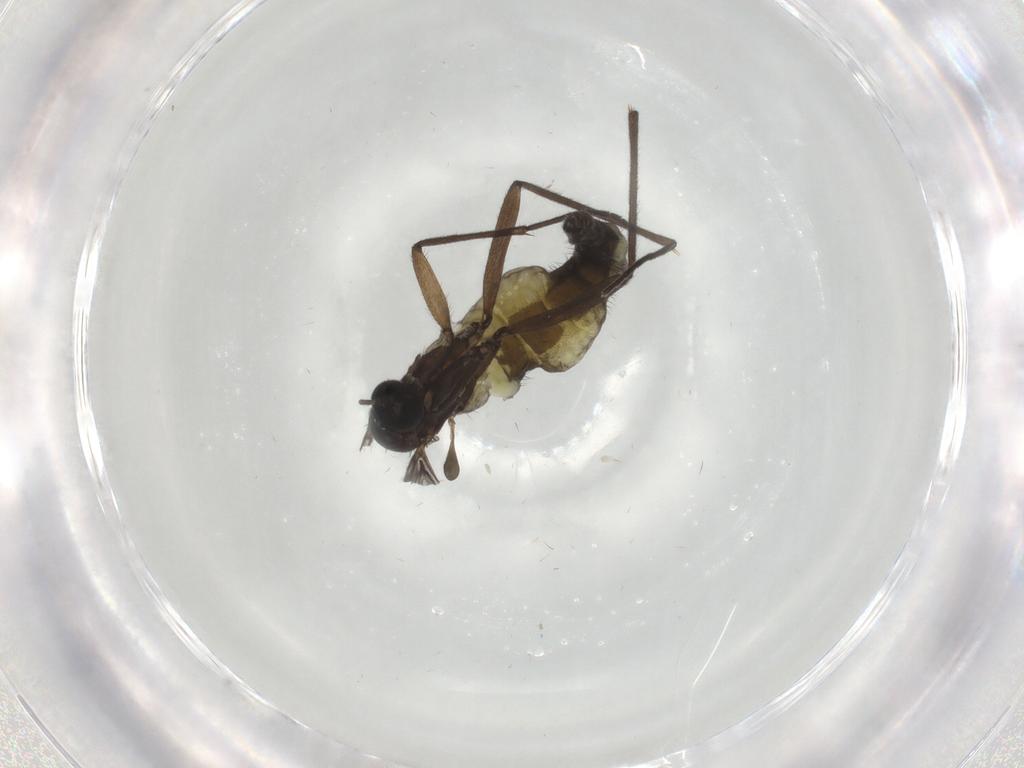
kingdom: Animalia
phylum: Arthropoda
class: Insecta
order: Diptera
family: Sciaridae
